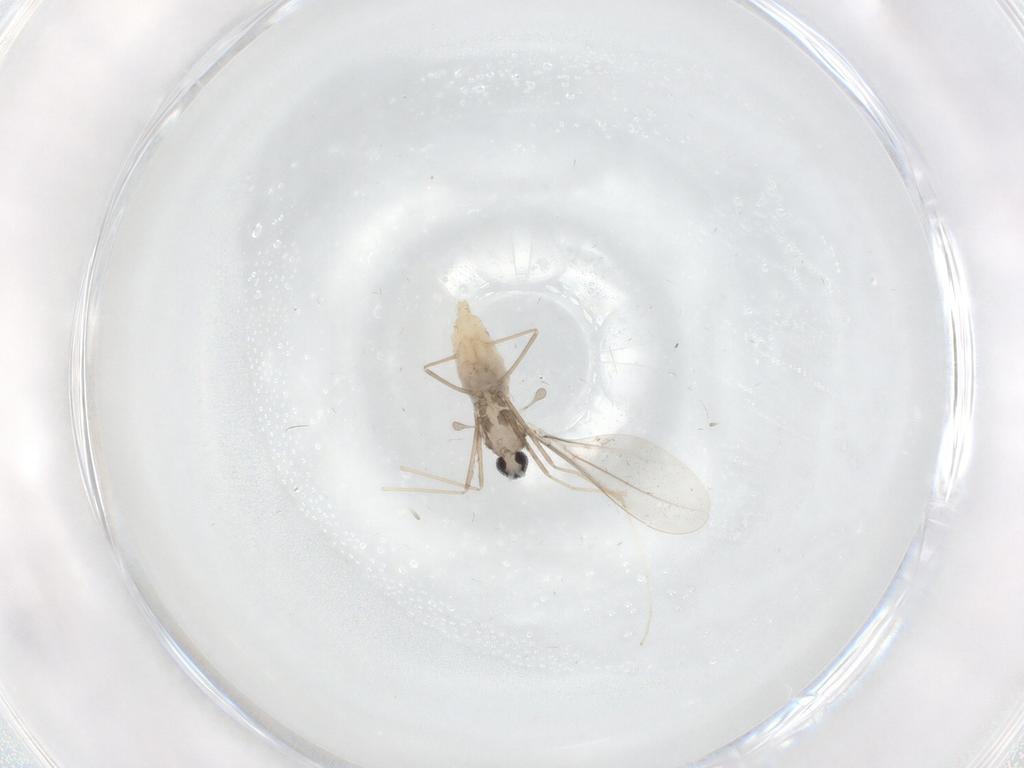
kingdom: Animalia
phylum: Arthropoda
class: Insecta
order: Diptera
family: Cecidomyiidae
